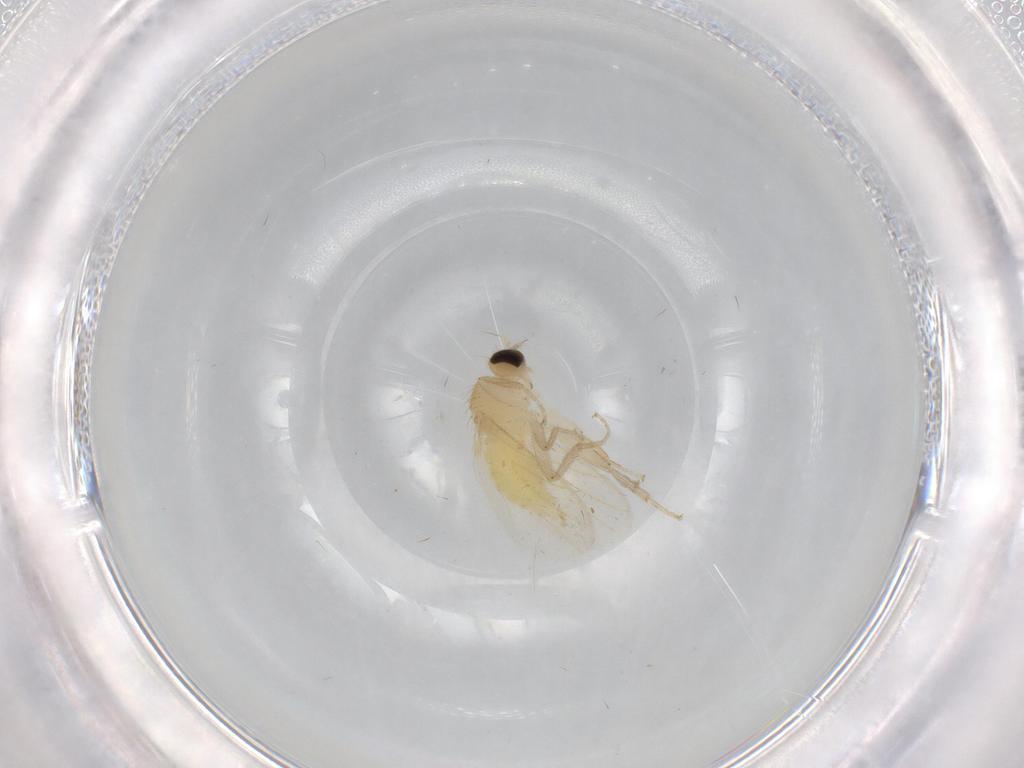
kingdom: Animalia
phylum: Arthropoda
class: Insecta
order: Diptera
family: Hybotidae
